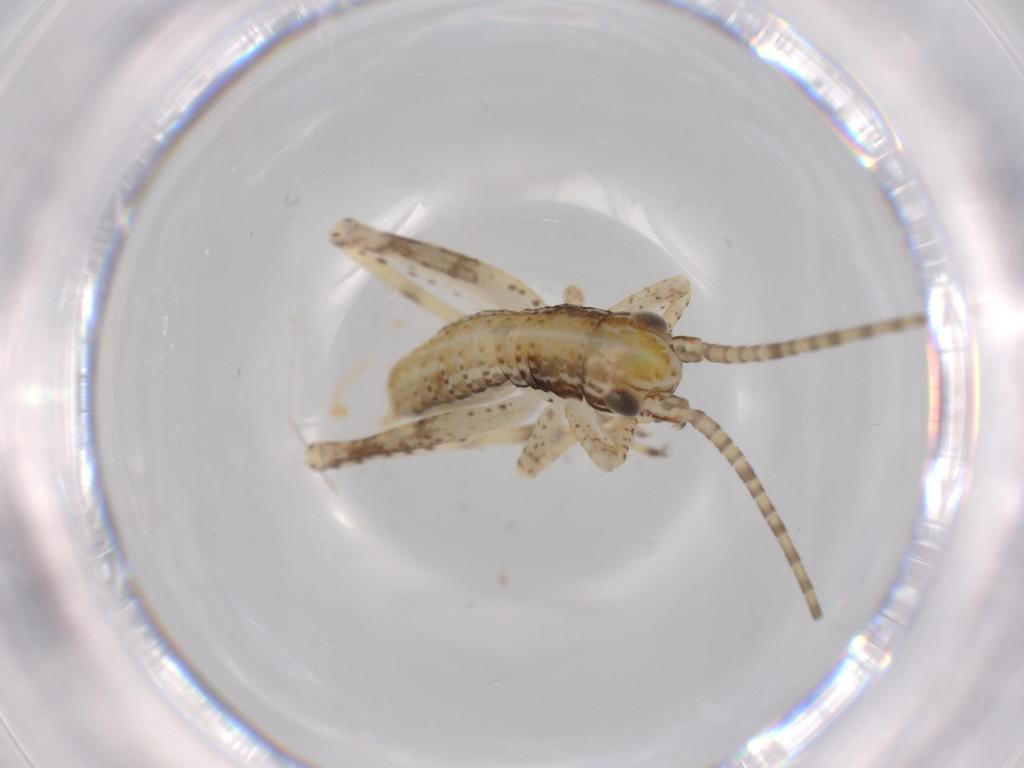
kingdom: Animalia
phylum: Arthropoda
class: Insecta
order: Orthoptera
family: Gryllidae
